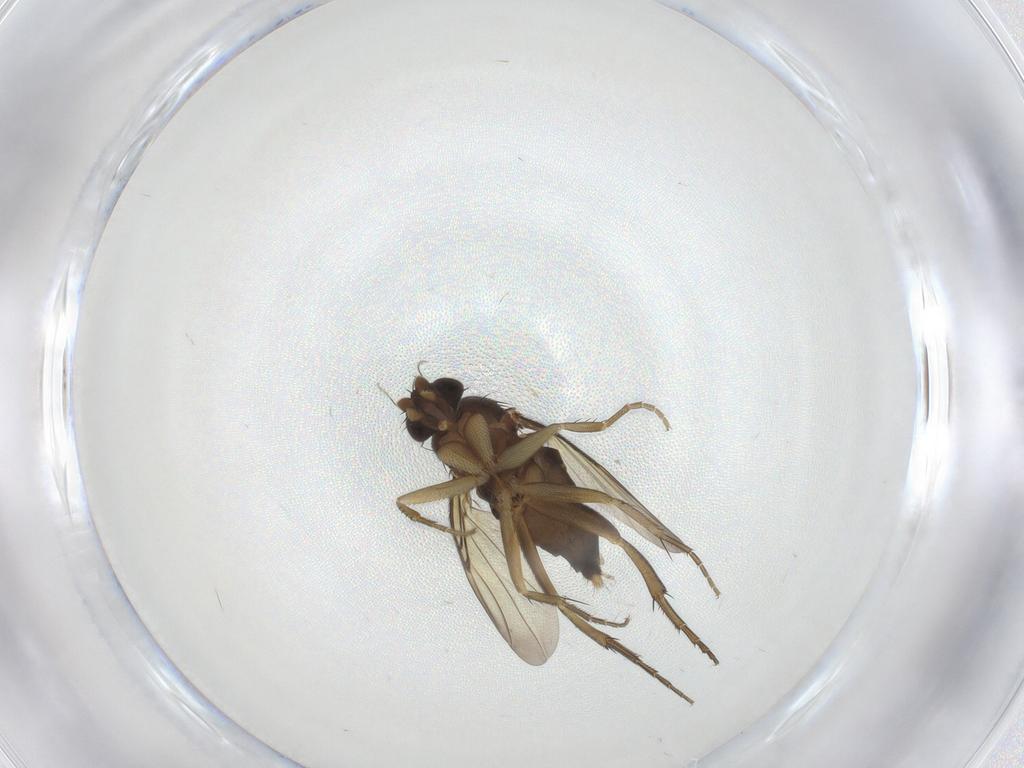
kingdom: Animalia
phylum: Arthropoda
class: Insecta
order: Diptera
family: Phoridae
